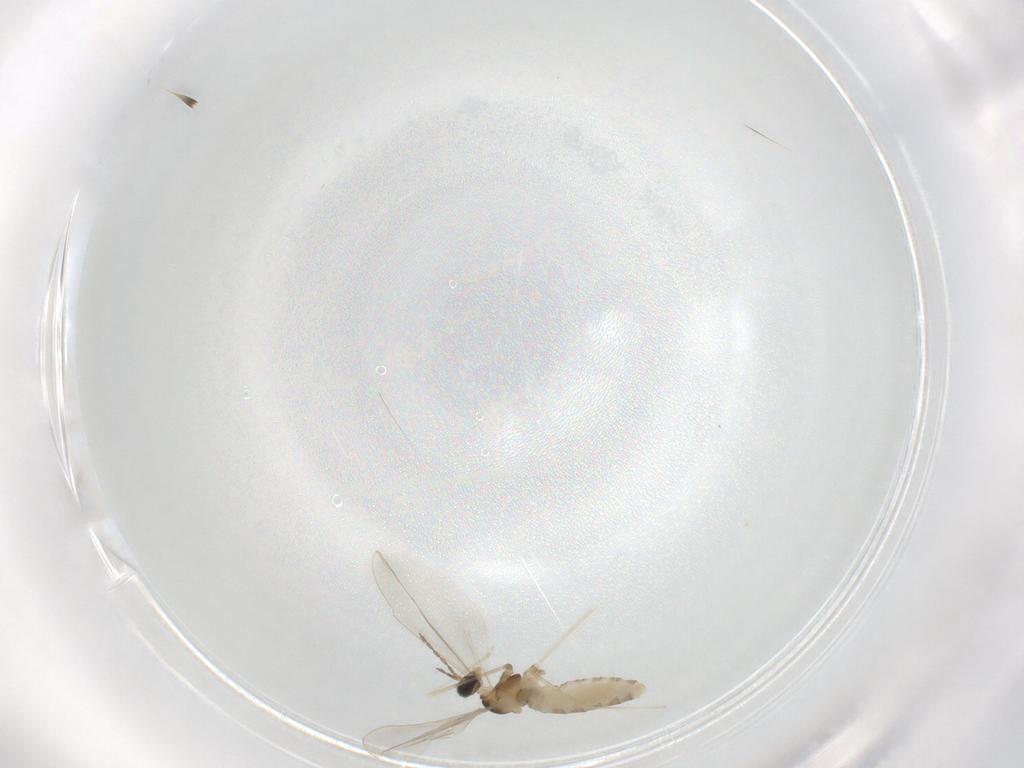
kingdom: Animalia
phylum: Arthropoda
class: Insecta
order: Diptera
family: Cecidomyiidae
